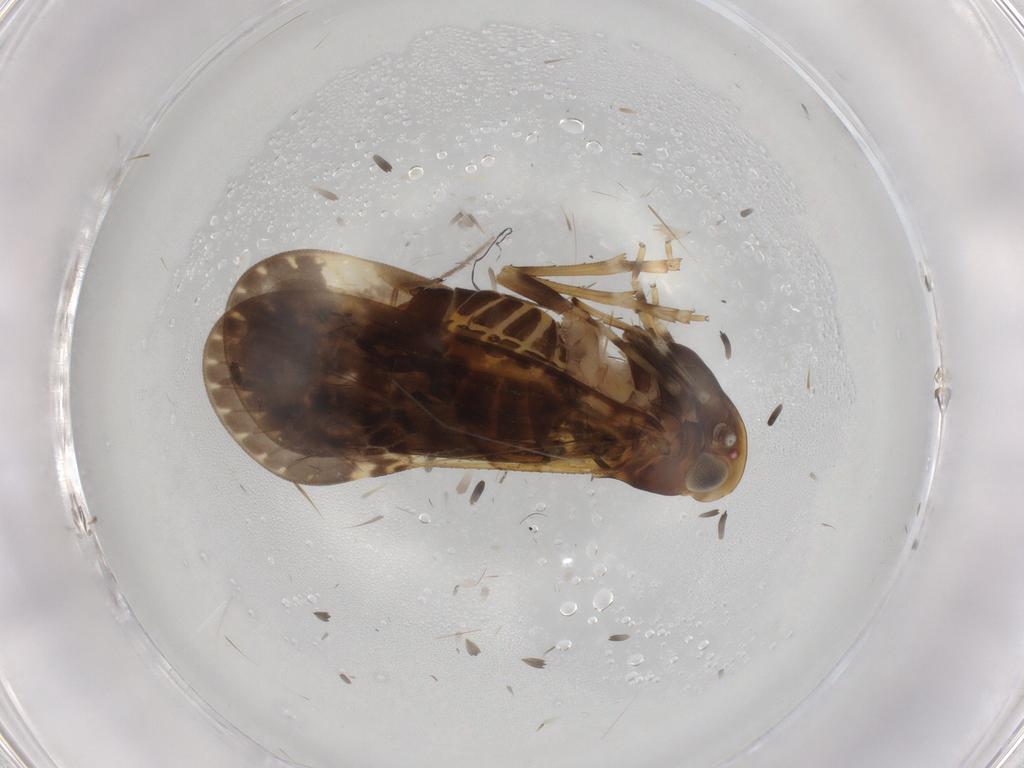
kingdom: Animalia
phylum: Arthropoda
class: Insecta
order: Hemiptera
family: Cixiidae
